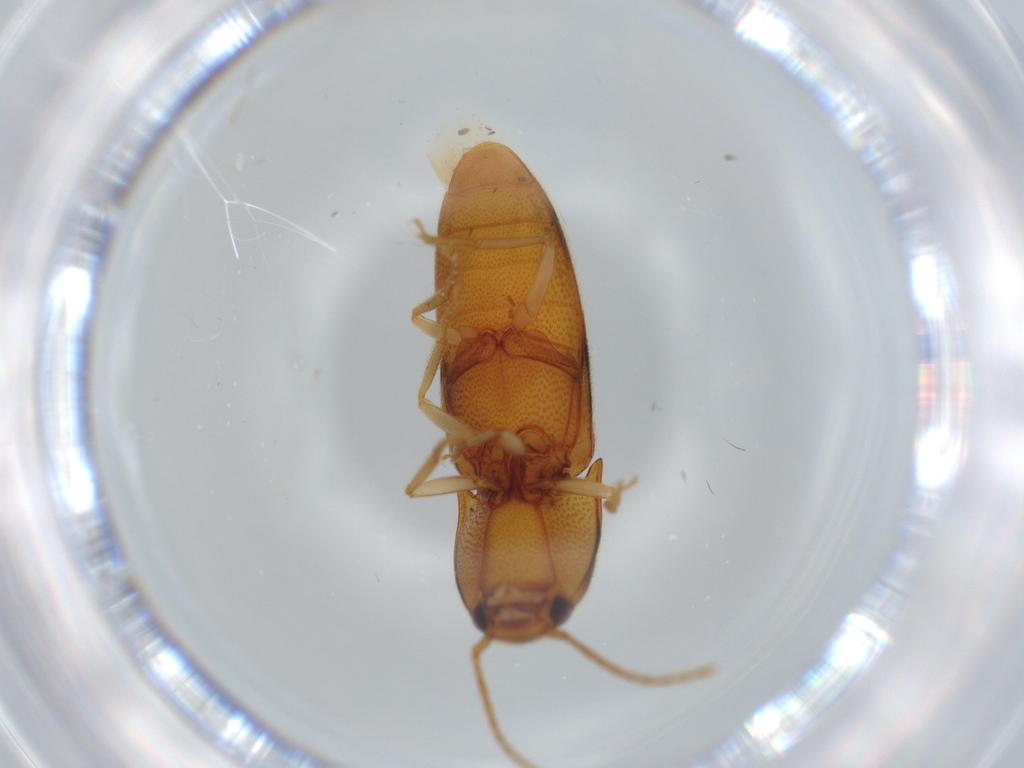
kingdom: Animalia
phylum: Arthropoda
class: Insecta
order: Coleoptera
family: Elateridae
